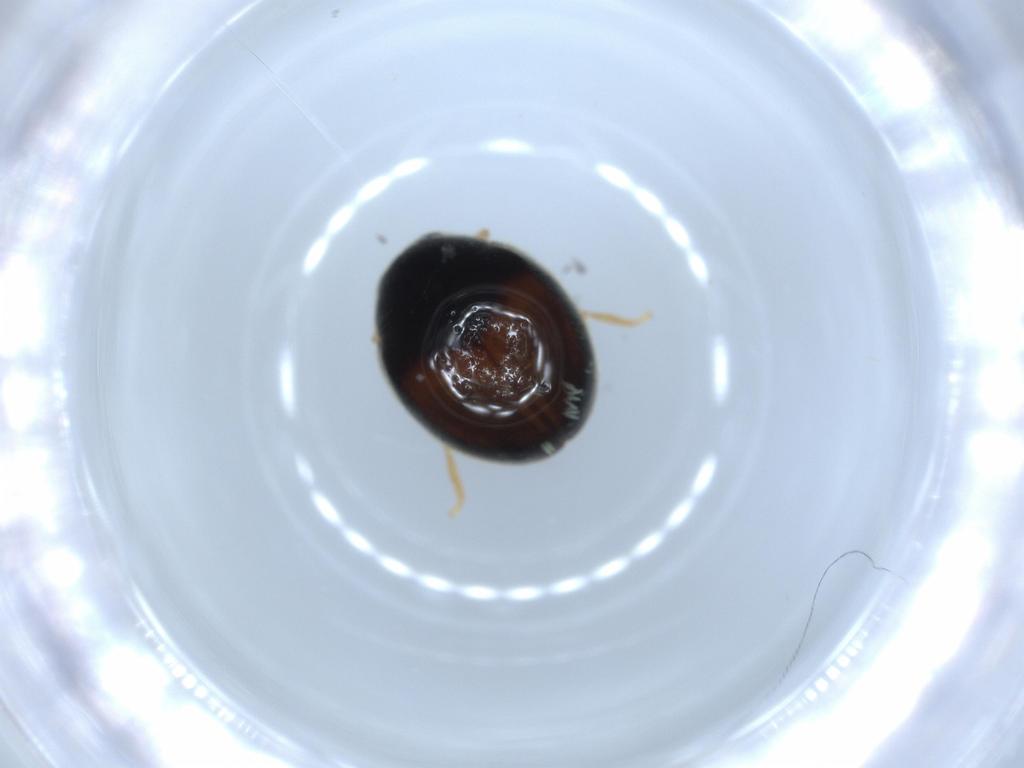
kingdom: Animalia
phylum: Arthropoda
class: Insecta
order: Coleoptera
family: Coccinellidae
